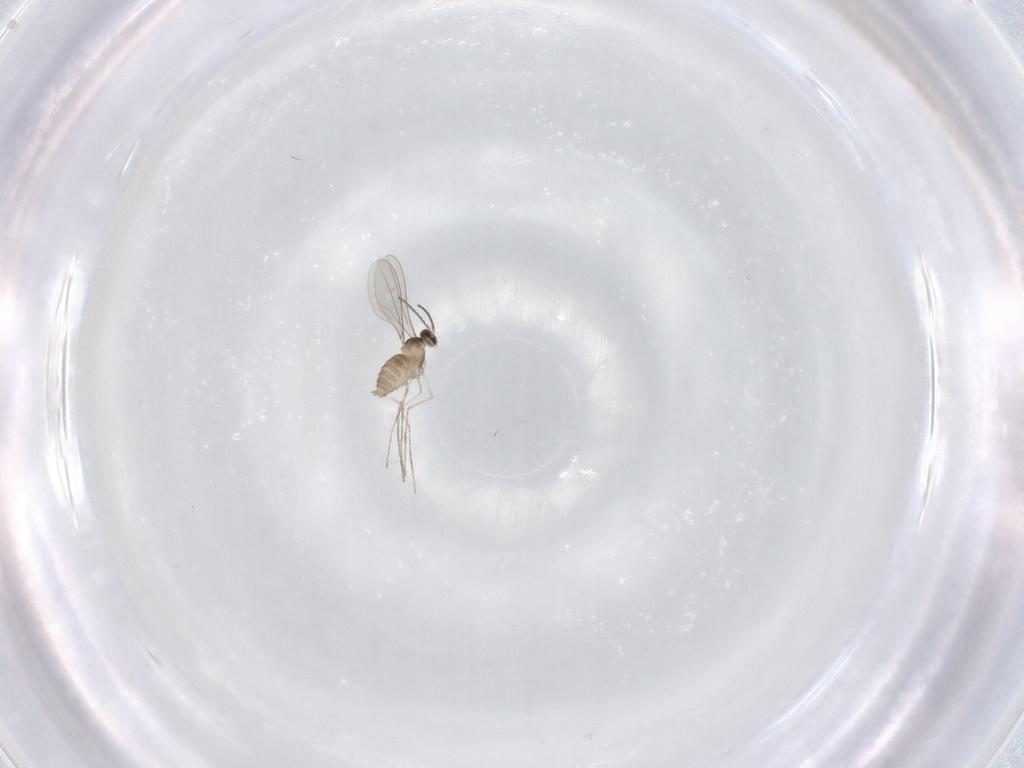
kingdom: Animalia
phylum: Arthropoda
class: Insecta
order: Diptera
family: Cecidomyiidae
